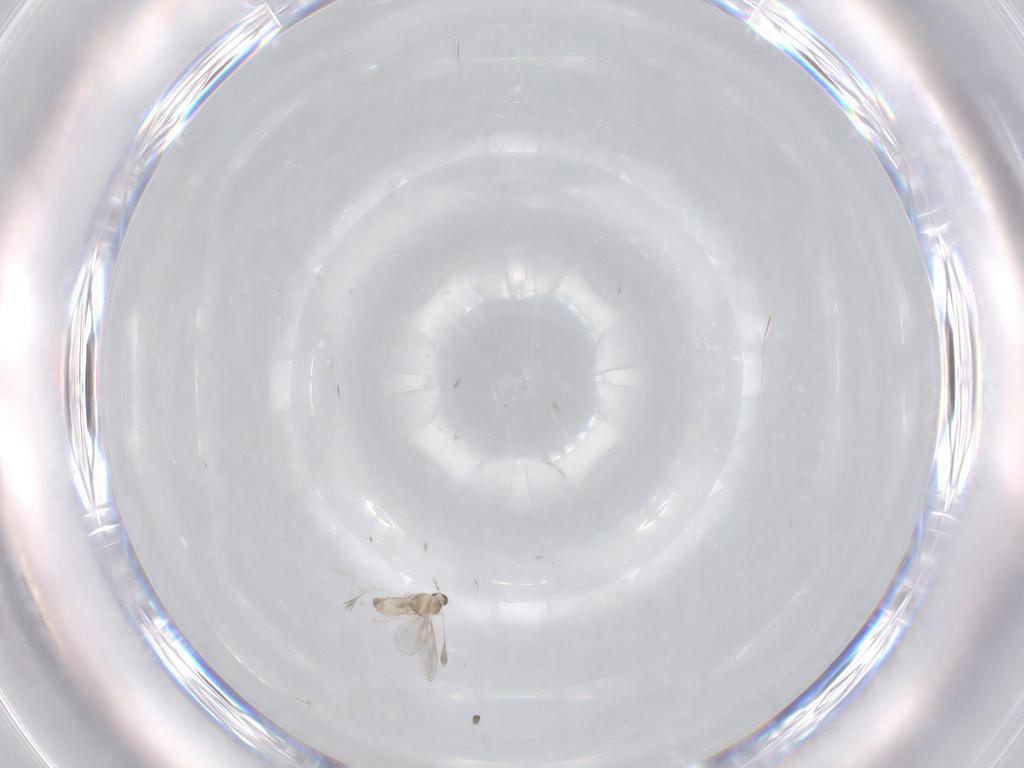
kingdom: Animalia
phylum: Arthropoda
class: Insecta
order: Diptera
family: Cecidomyiidae
